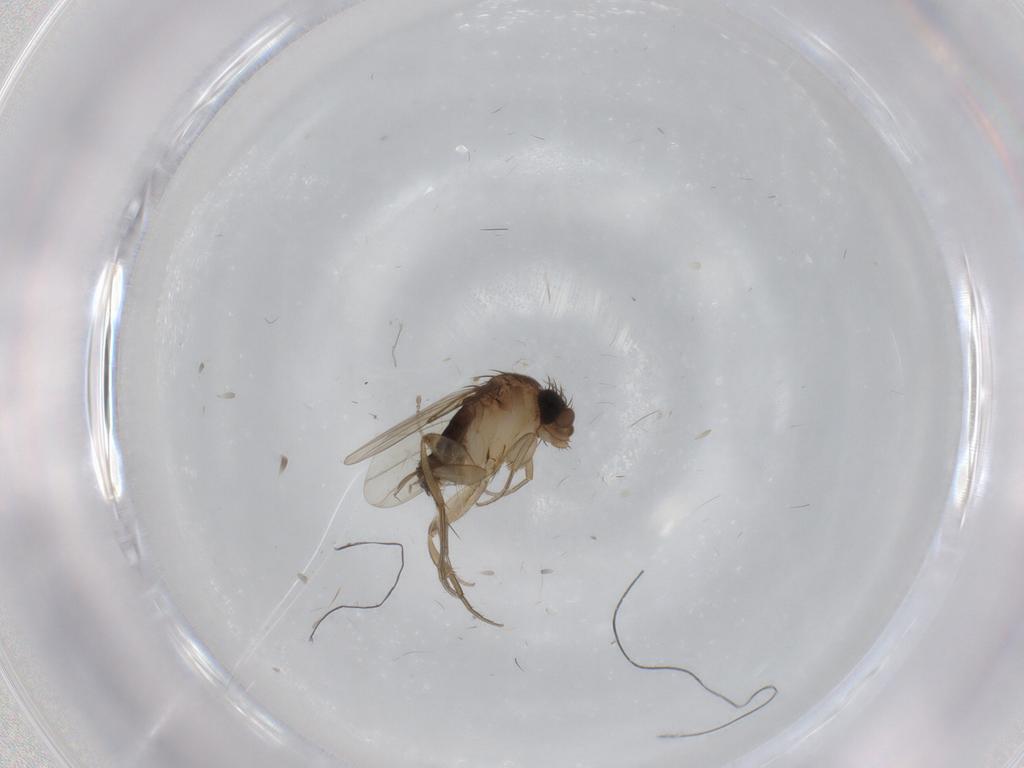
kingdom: Animalia
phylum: Arthropoda
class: Insecta
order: Diptera
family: Phoridae
